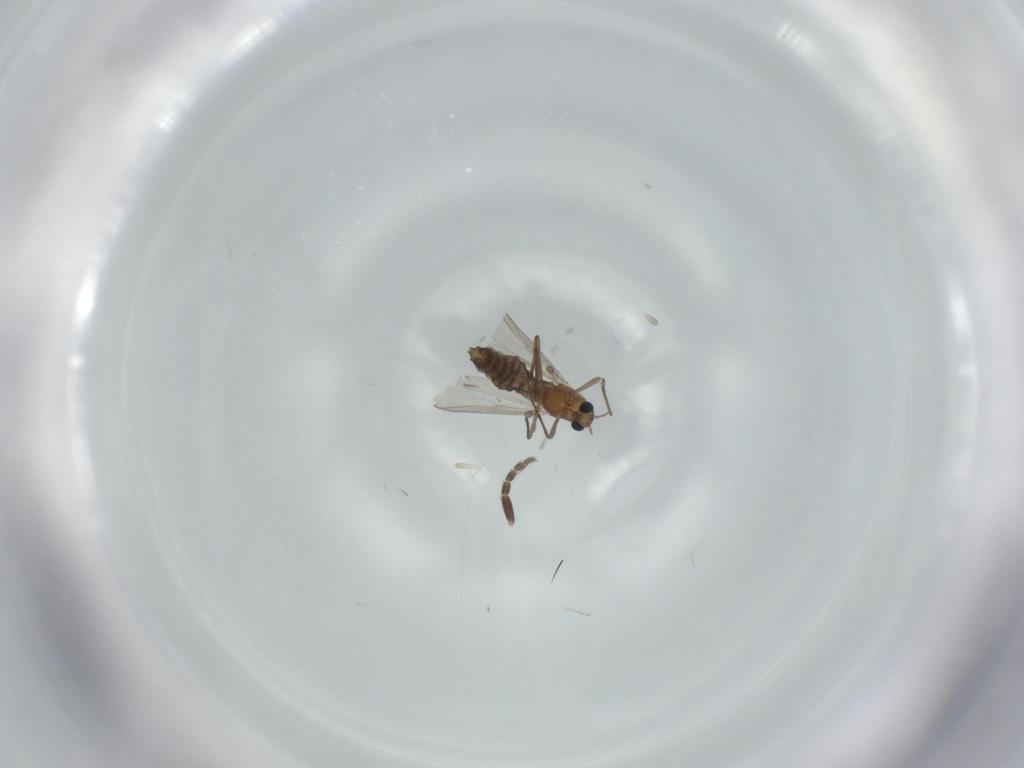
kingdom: Animalia
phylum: Arthropoda
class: Insecta
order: Diptera
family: Chironomidae
